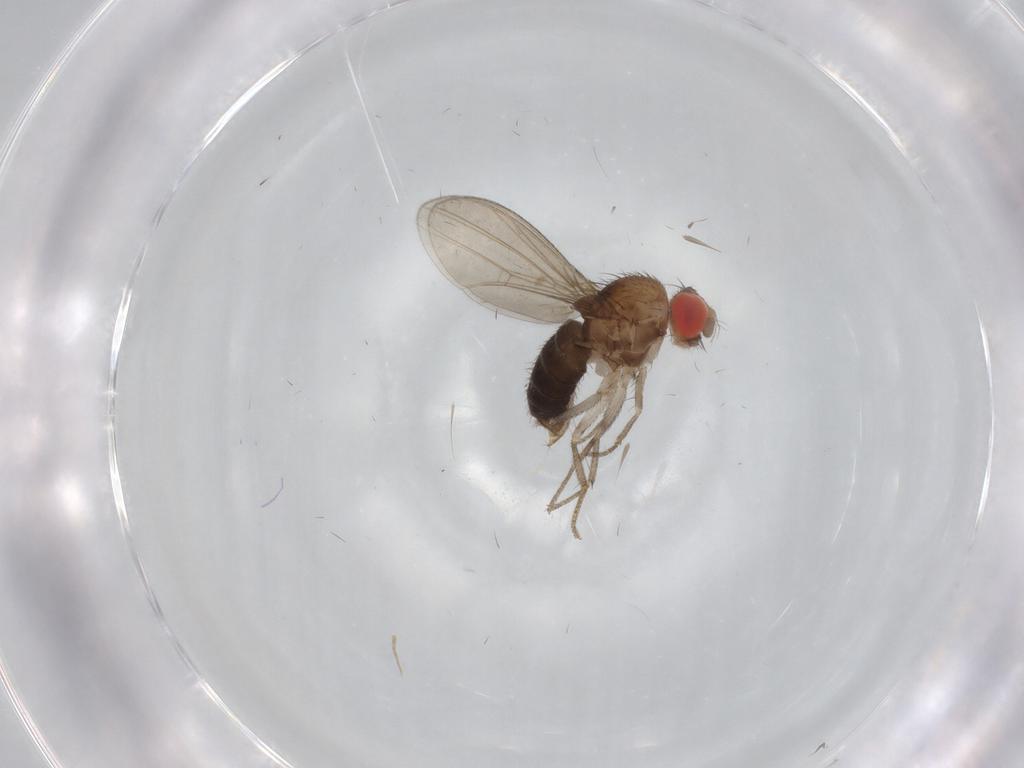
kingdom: Animalia
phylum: Arthropoda
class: Insecta
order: Diptera
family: Drosophilidae
